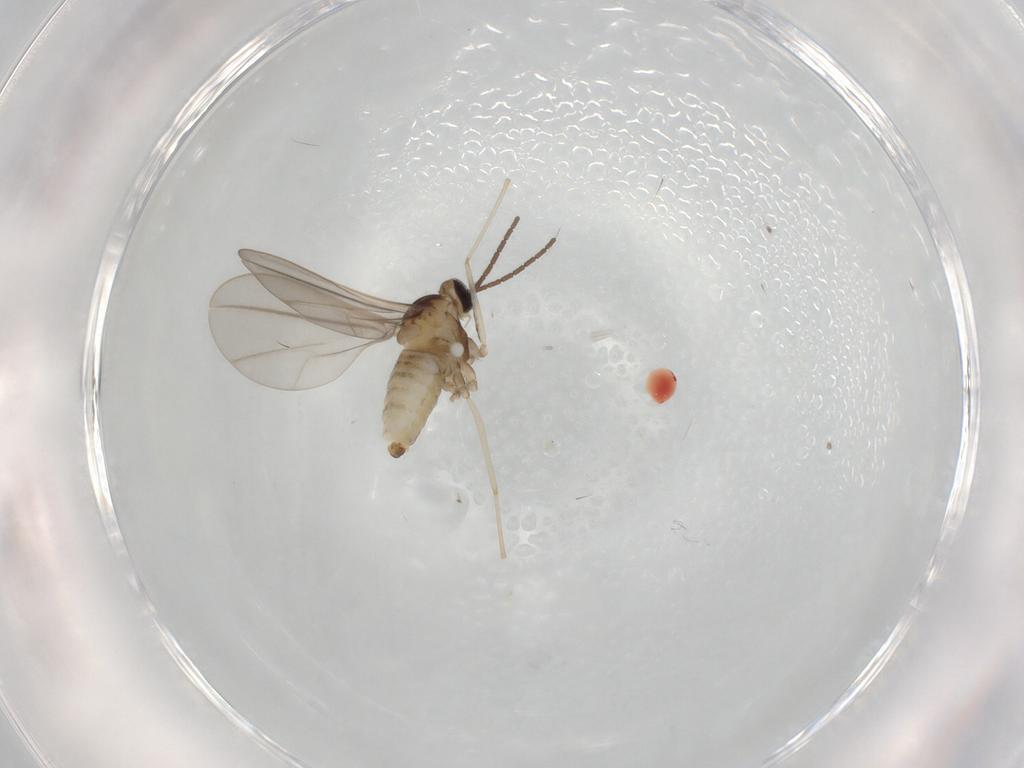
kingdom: Animalia
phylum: Arthropoda
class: Insecta
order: Diptera
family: Cecidomyiidae
